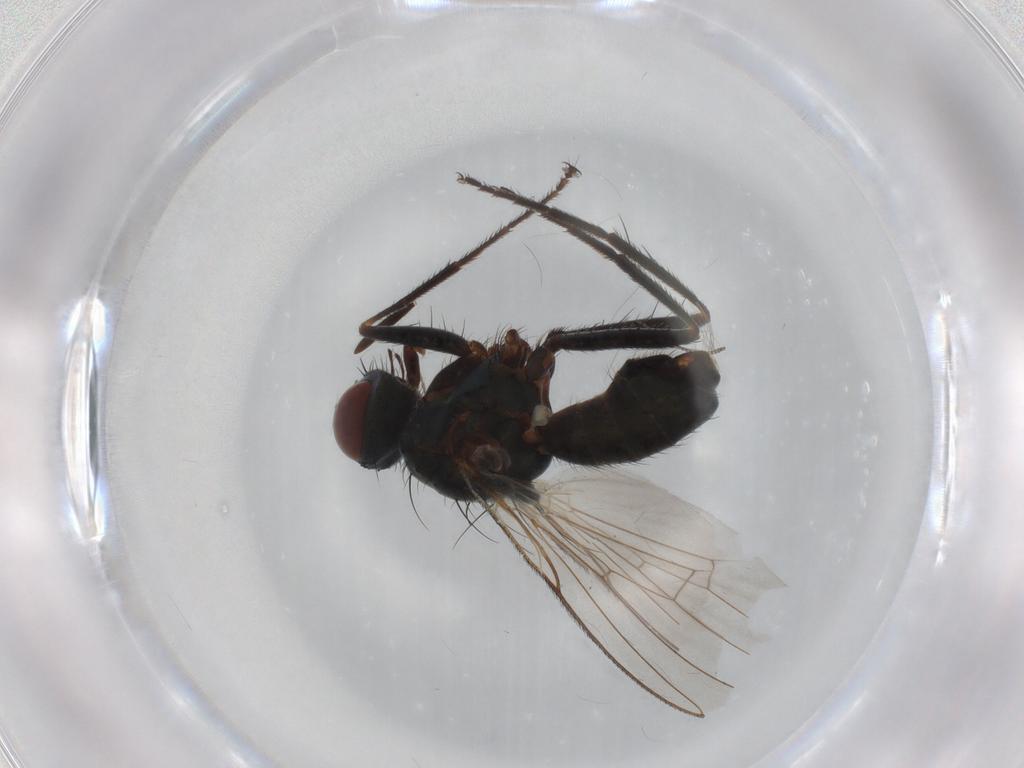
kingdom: Animalia
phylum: Arthropoda
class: Insecta
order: Diptera
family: Muscidae
